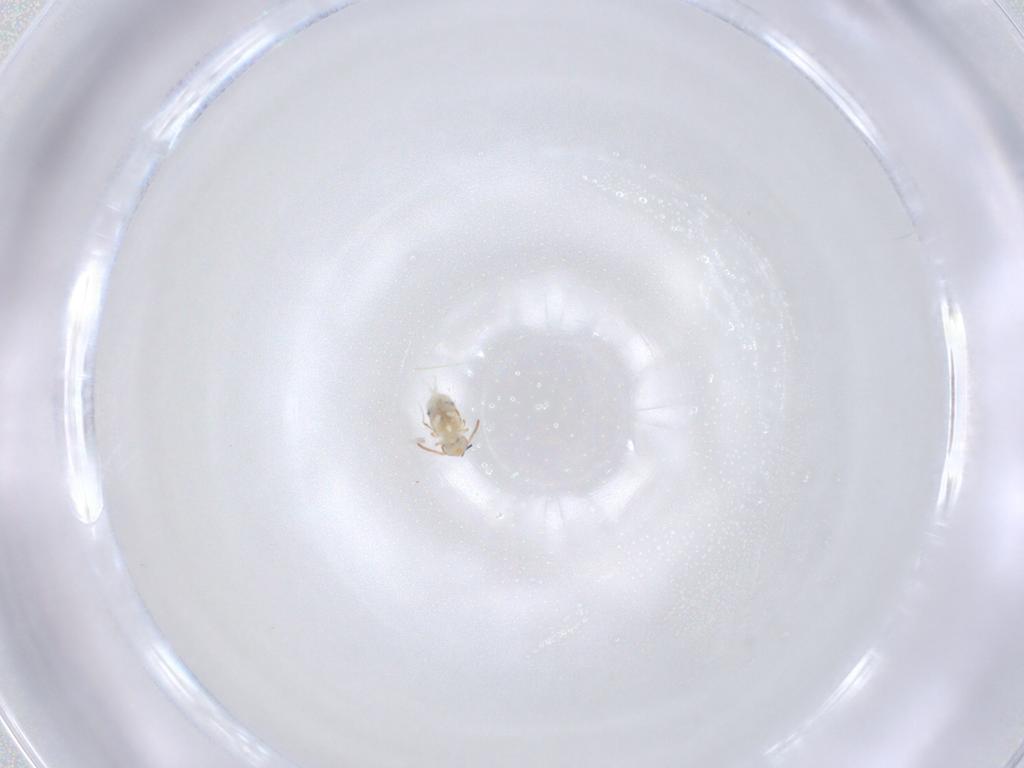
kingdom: Animalia
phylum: Arthropoda
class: Collembola
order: Symphypleona
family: Bourletiellidae
